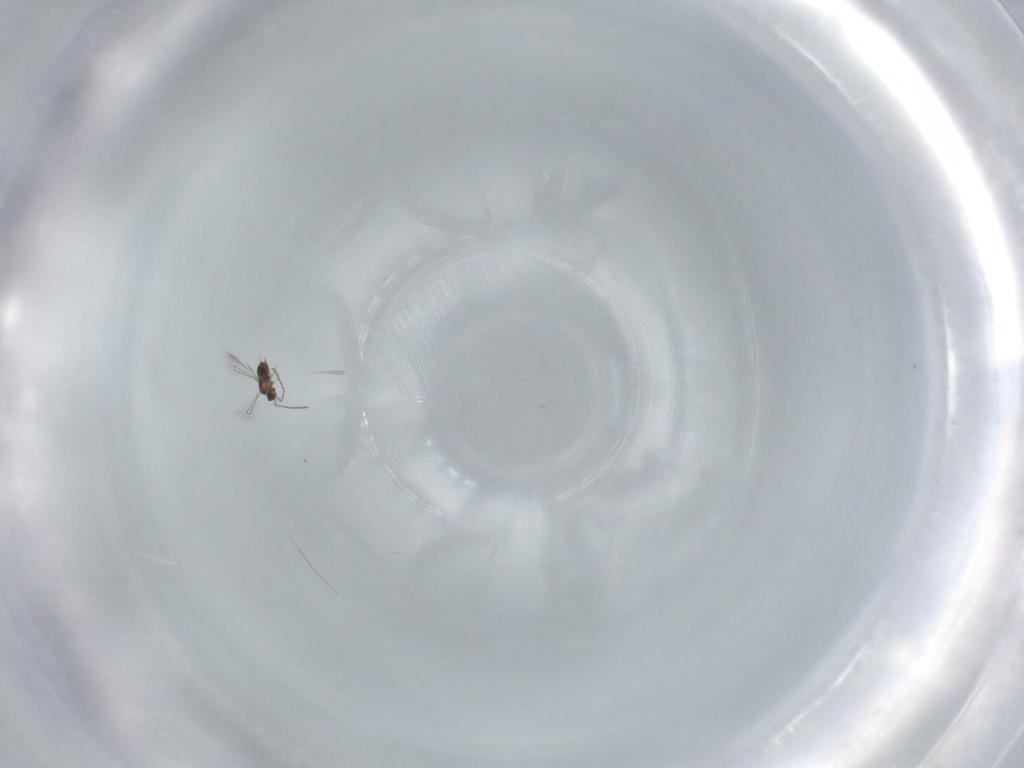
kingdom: Animalia
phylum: Arthropoda
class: Insecta
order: Hymenoptera
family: Mymaridae
